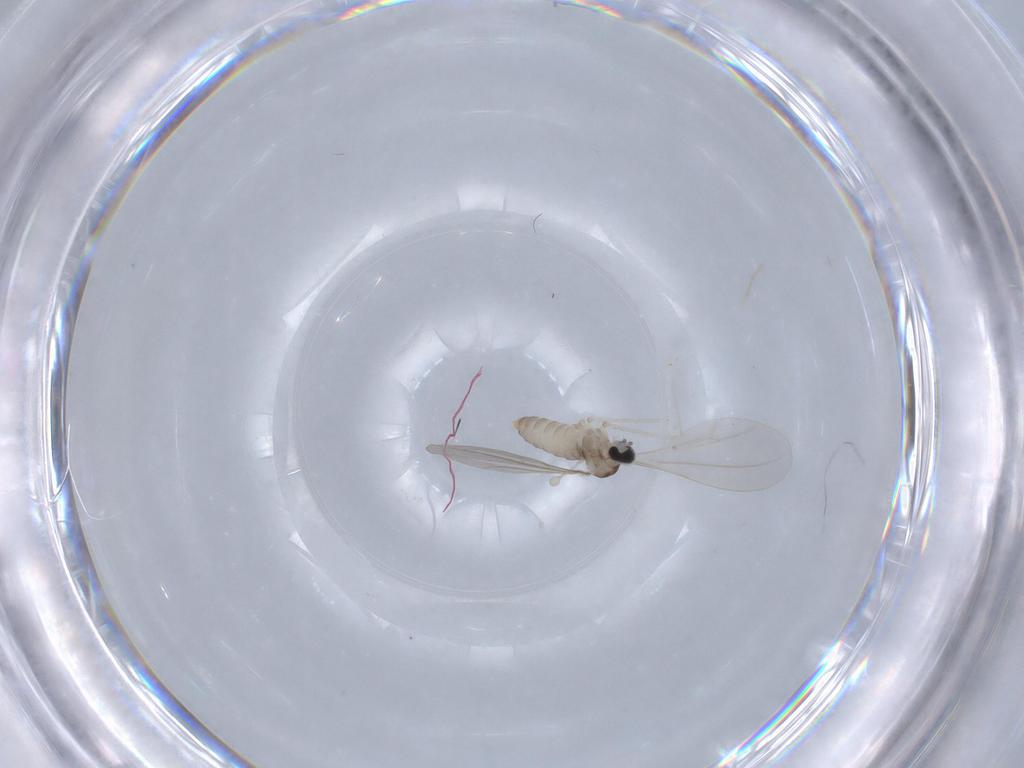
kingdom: Animalia
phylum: Arthropoda
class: Insecta
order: Diptera
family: Cecidomyiidae
